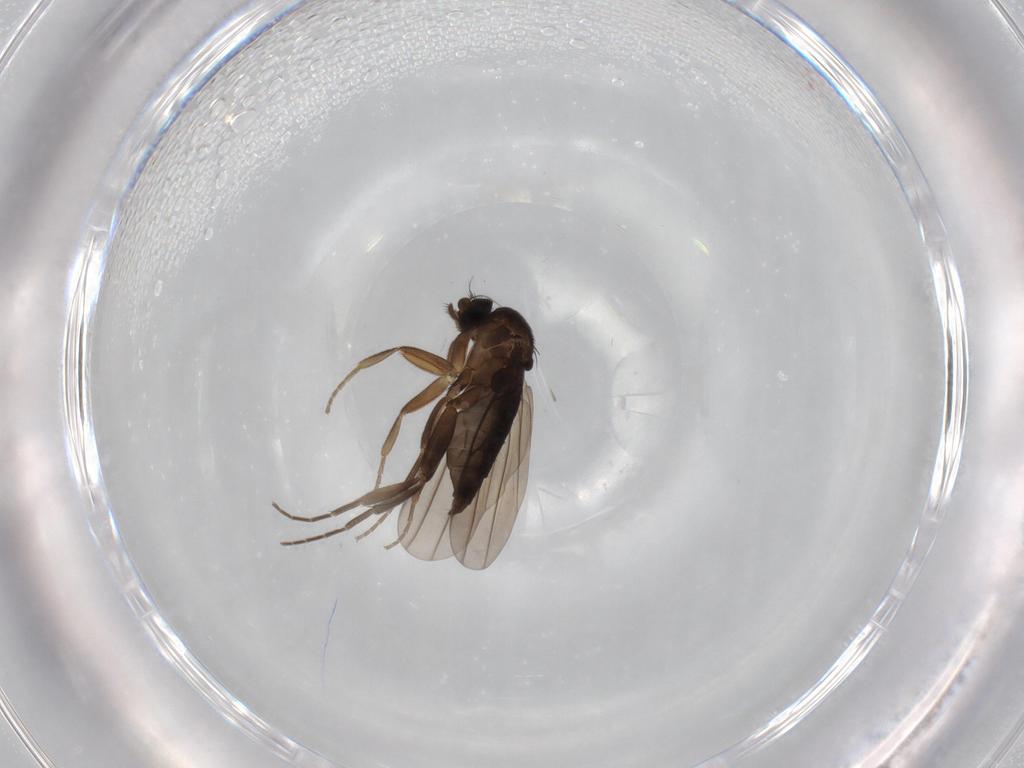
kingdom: Animalia
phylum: Arthropoda
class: Insecta
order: Diptera
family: Phoridae
